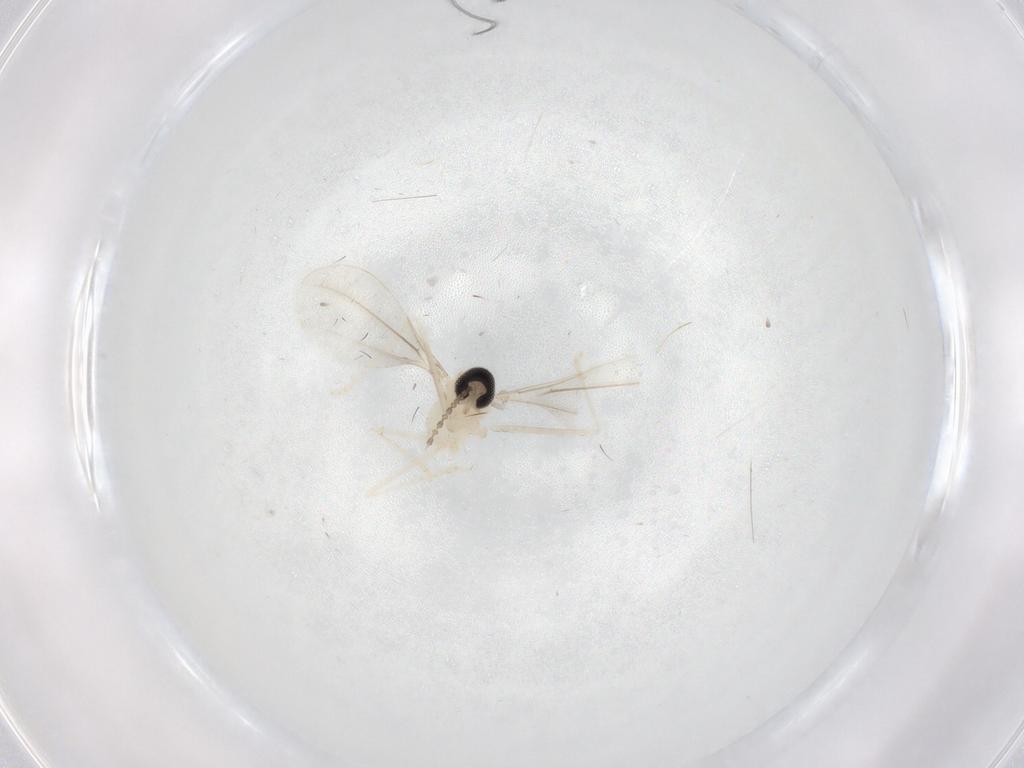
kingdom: Animalia
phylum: Arthropoda
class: Insecta
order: Diptera
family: Cecidomyiidae
